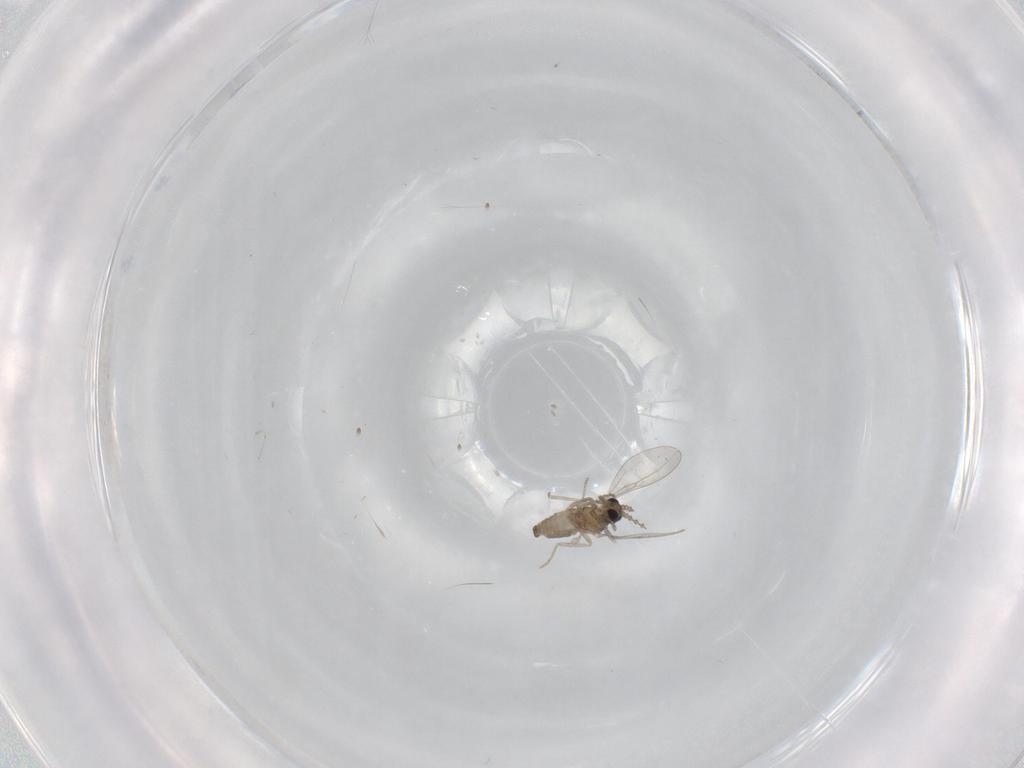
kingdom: Animalia
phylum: Arthropoda
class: Insecta
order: Diptera
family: Cecidomyiidae
